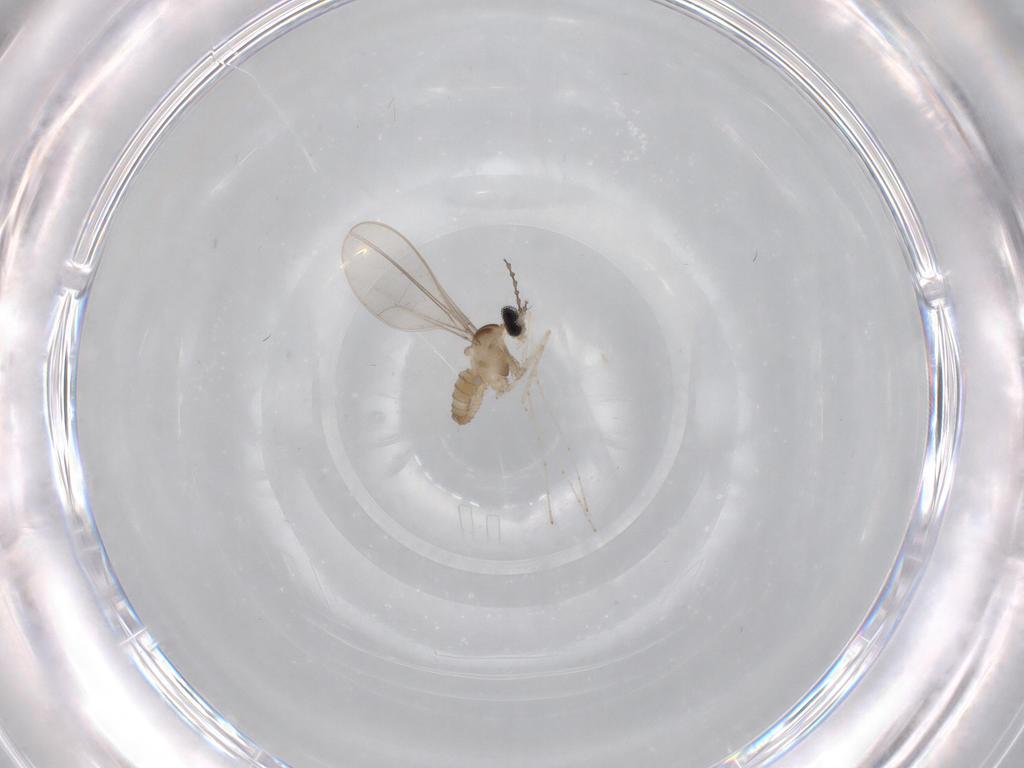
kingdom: Animalia
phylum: Arthropoda
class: Insecta
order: Diptera
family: Cecidomyiidae
